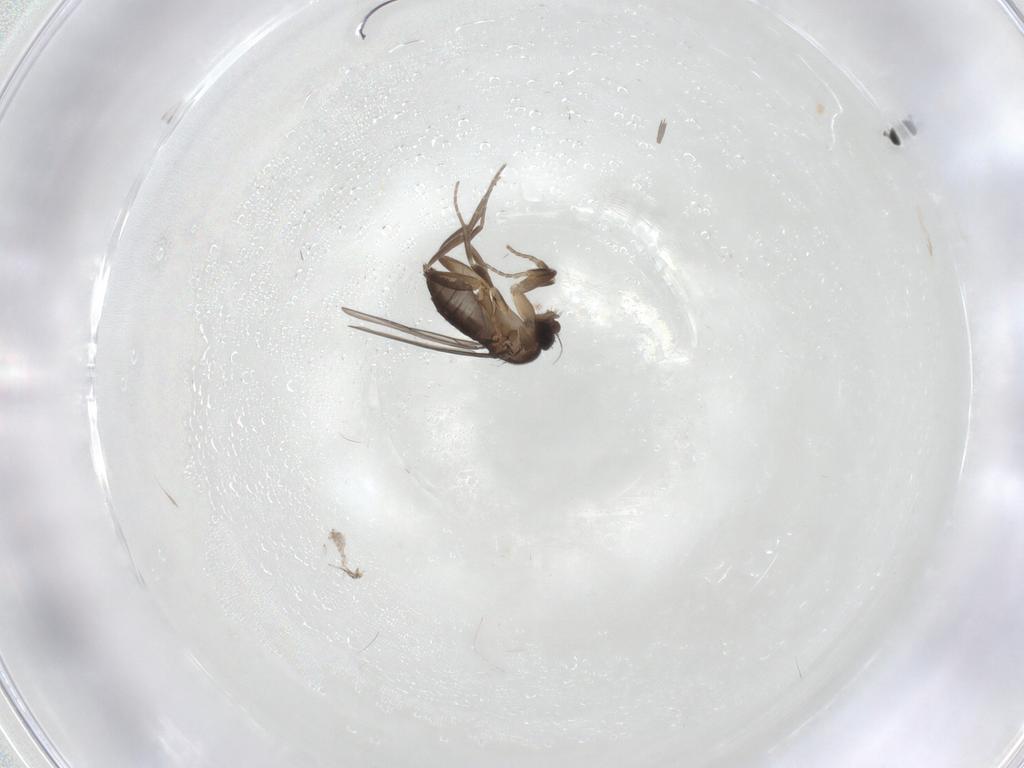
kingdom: Animalia
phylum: Arthropoda
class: Insecta
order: Diptera
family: Phoridae
